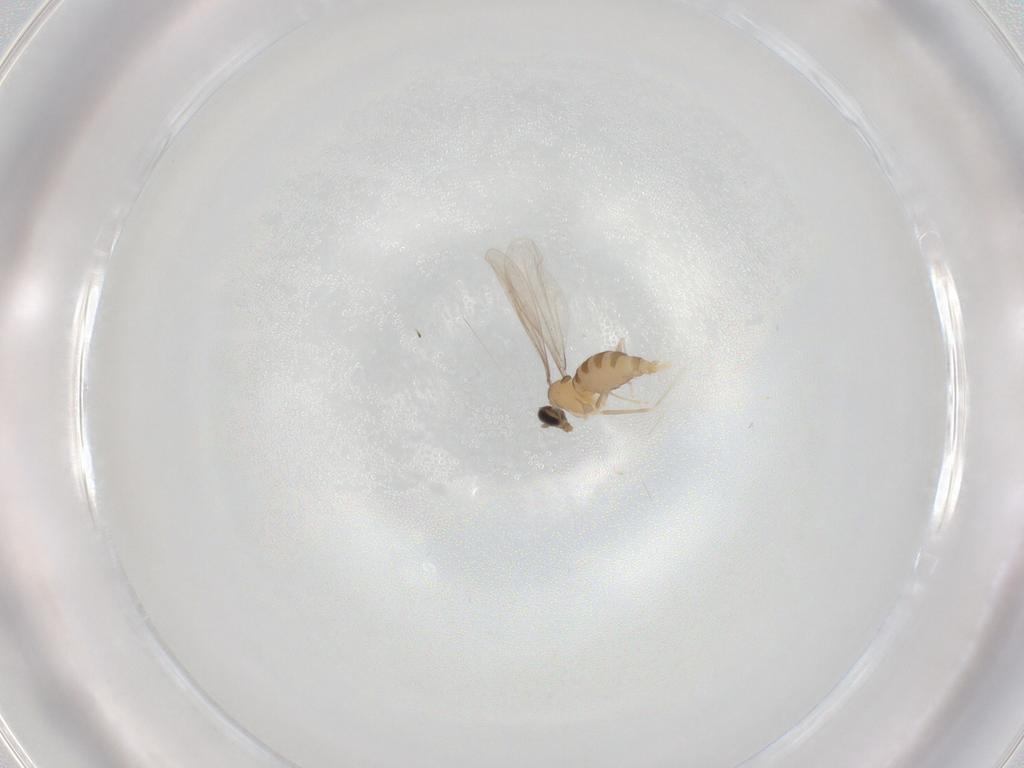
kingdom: Animalia
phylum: Arthropoda
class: Insecta
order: Diptera
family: Cecidomyiidae
